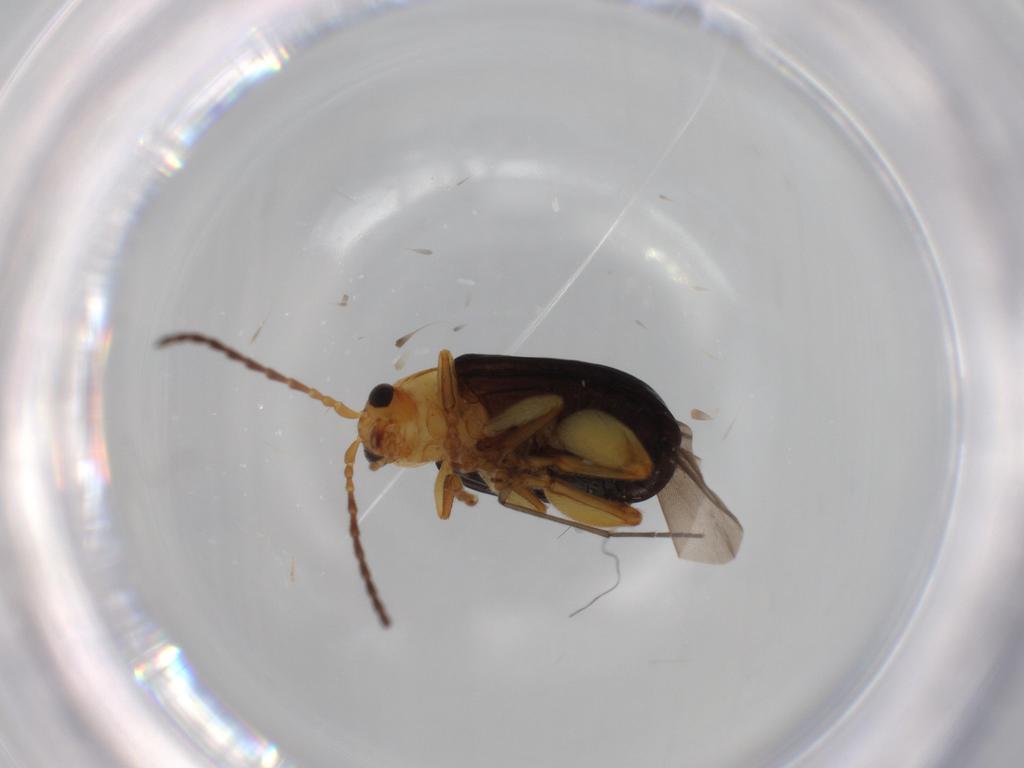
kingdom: Animalia
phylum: Arthropoda
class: Insecta
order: Coleoptera
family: Chrysomelidae
